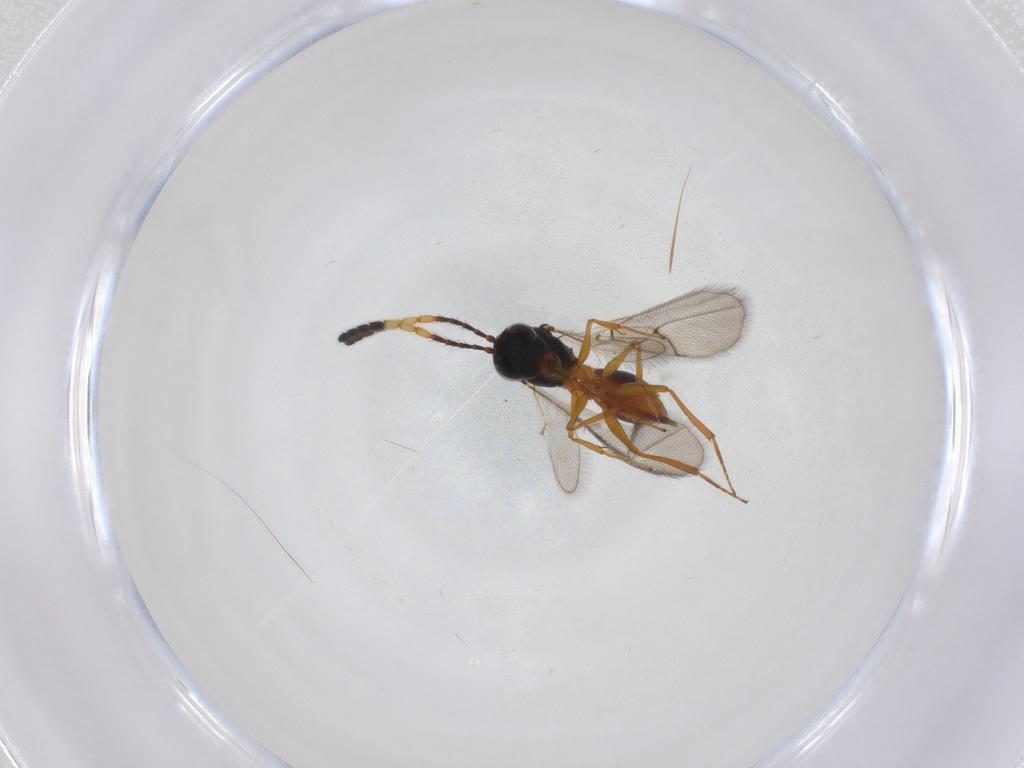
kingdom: Animalia
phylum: Arthropoda
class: Insecta
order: Hymenoptera
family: Figitidae
